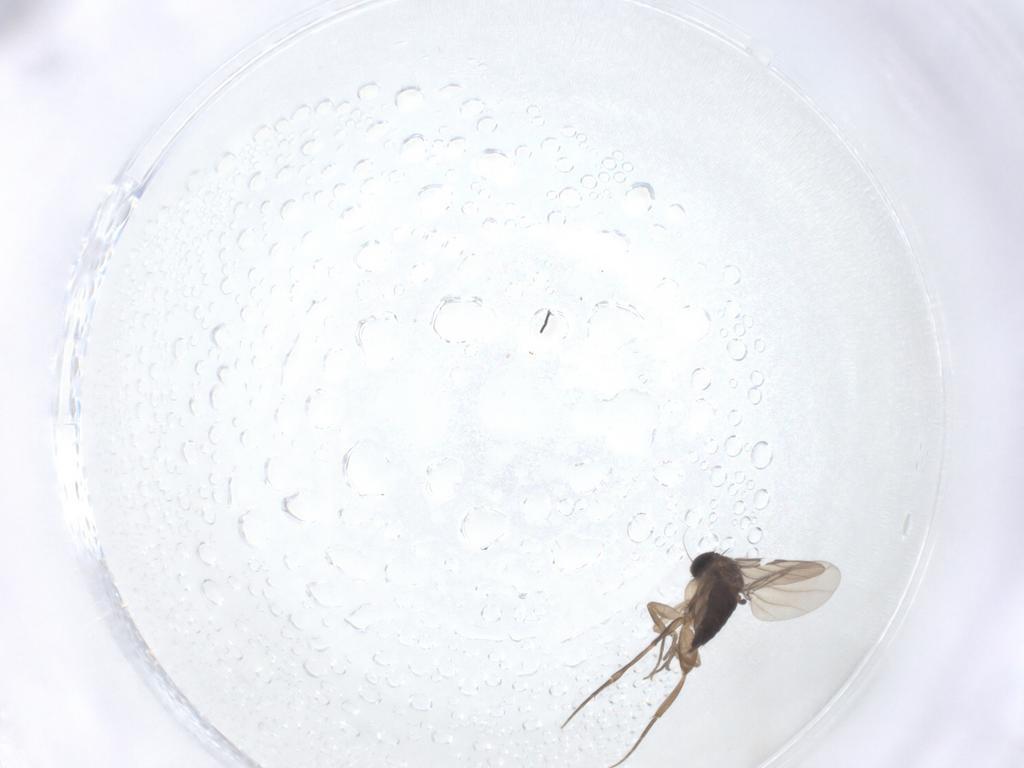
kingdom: Animalia
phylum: Arthropoda
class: Insecta
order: Diptera
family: Phoridae
